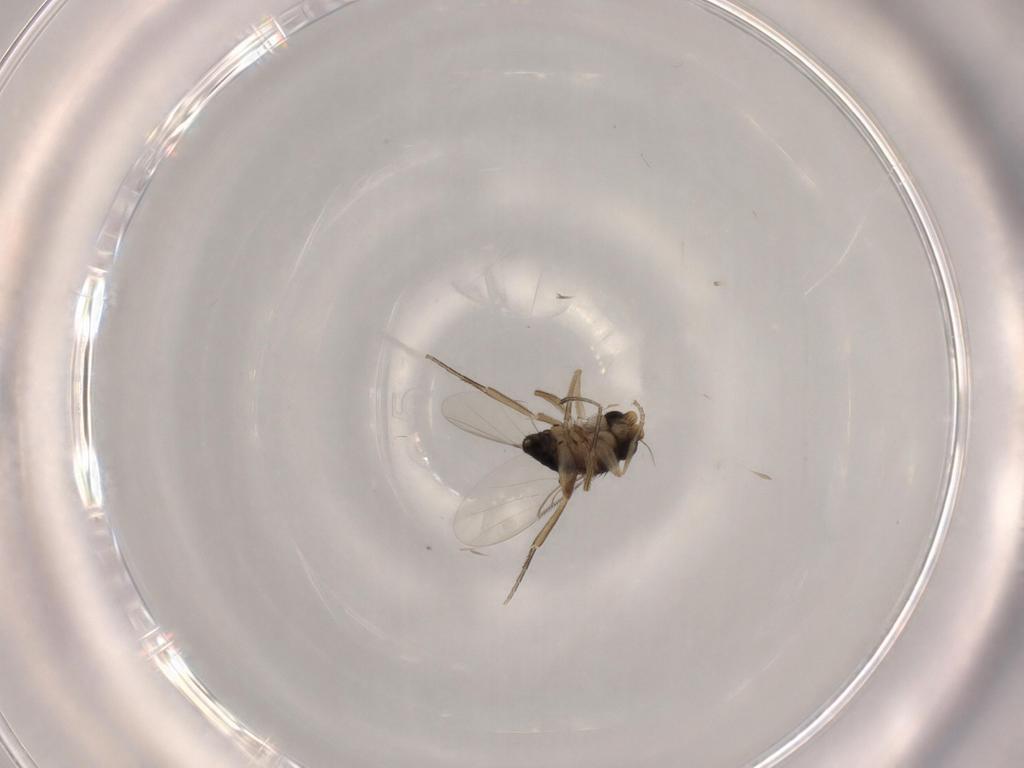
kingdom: Animalia
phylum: Arthropoda
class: Insecta
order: Diptera
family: Phoridae
